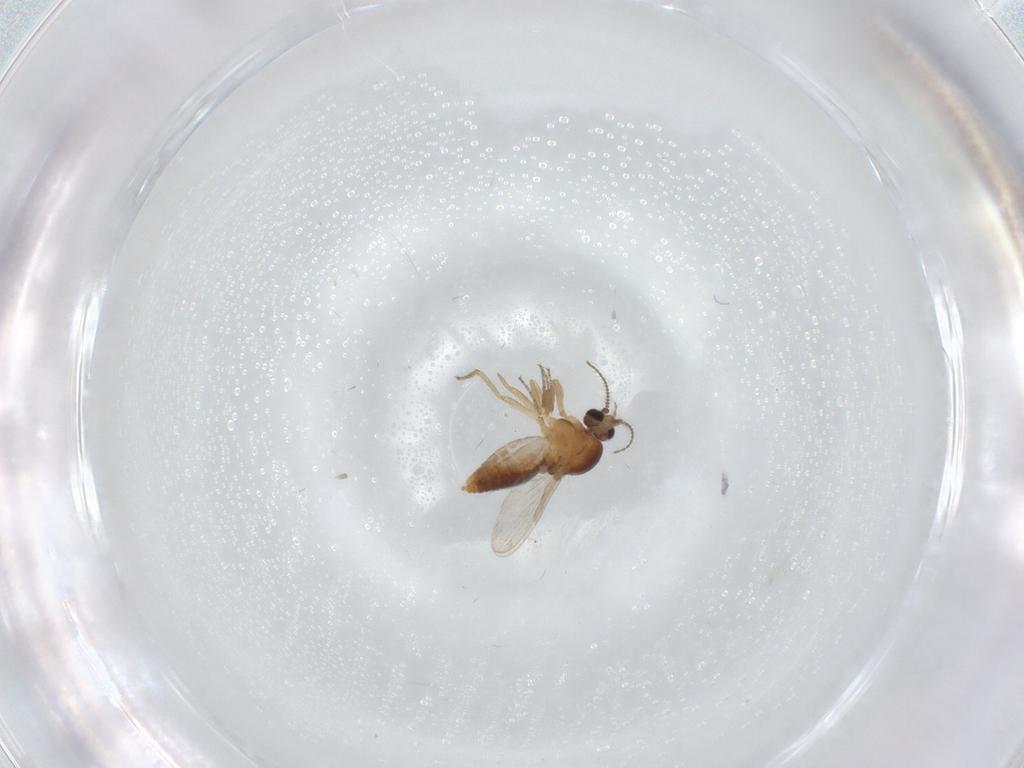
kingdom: Animalia
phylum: Arthropoda
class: Insecta
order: Diptera
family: Ceratopogonidae
